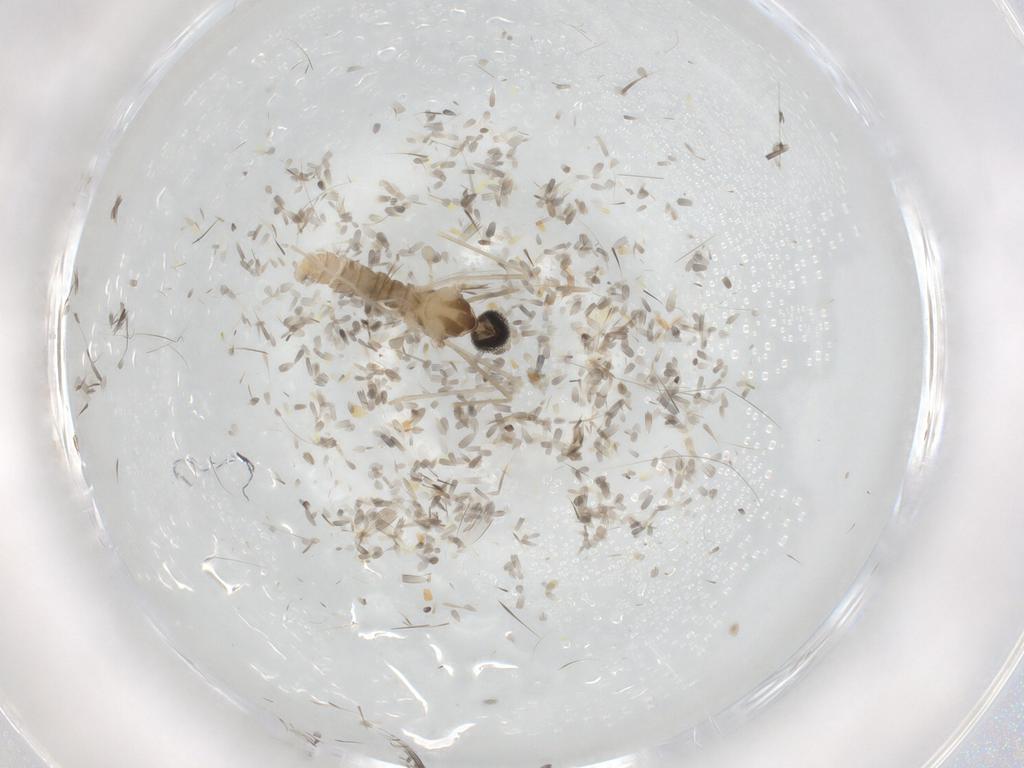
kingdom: Animalia
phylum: Arthropoda
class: Insecta
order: Diptera
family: Cecidomyiidae
